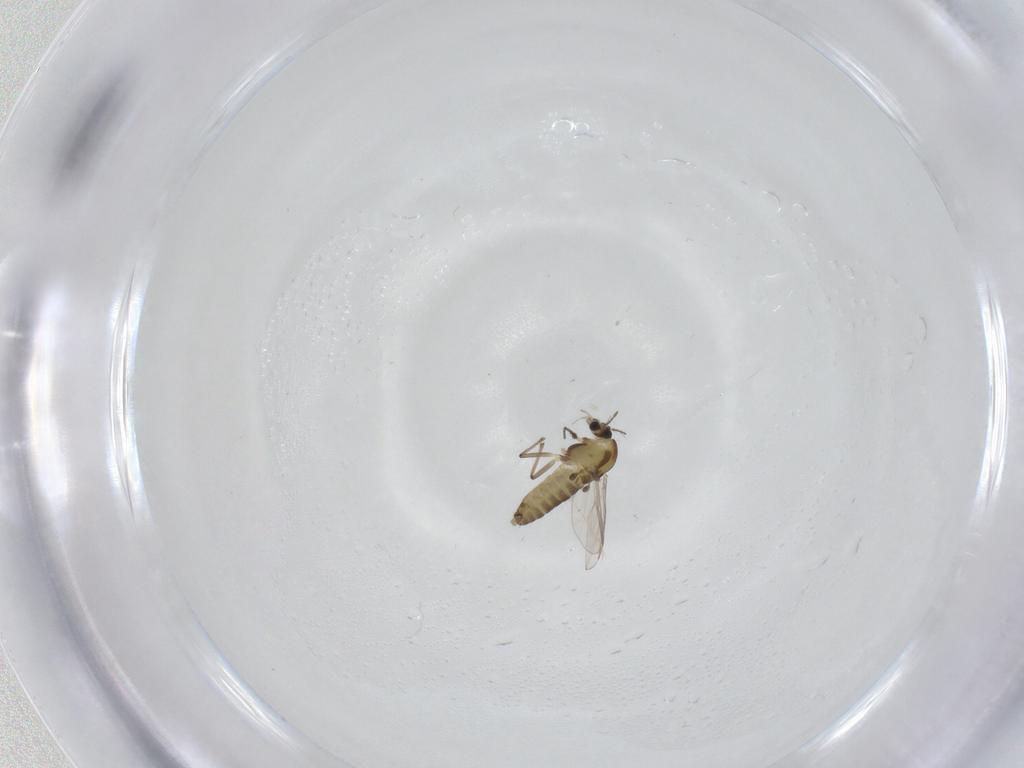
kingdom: Animalia
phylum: Arthropoda
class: Insecta
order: Diptera
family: Chironomidae
